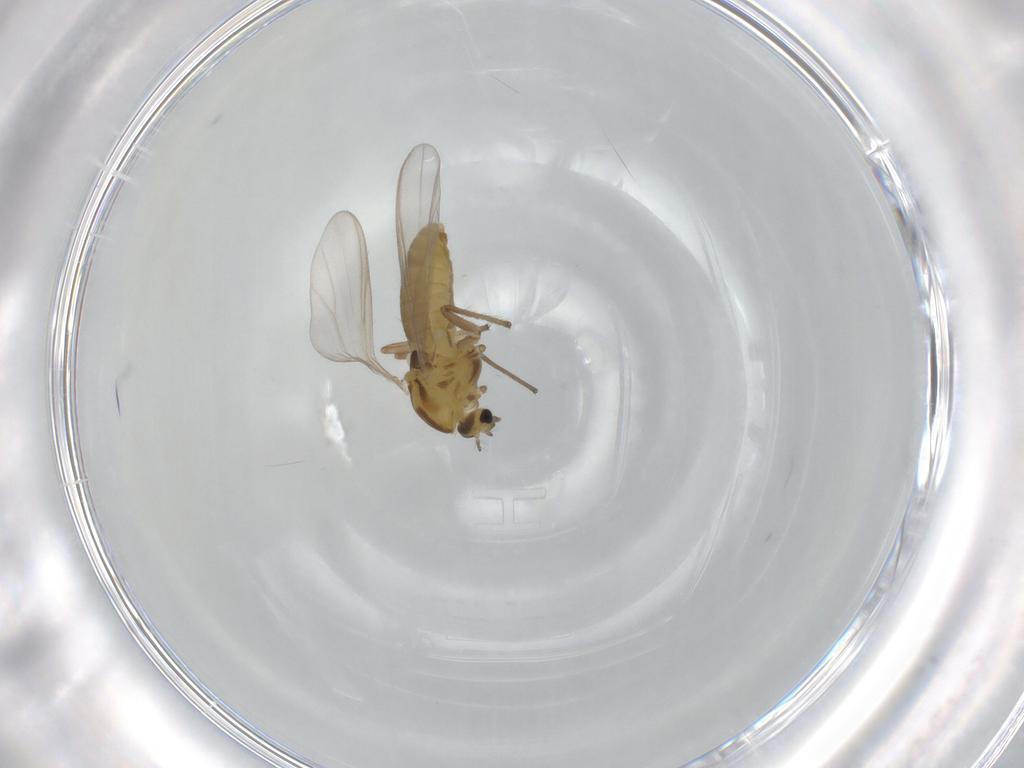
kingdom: Animalia
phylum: Arthropoda
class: Insecta
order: Diptera
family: Chironomidae
